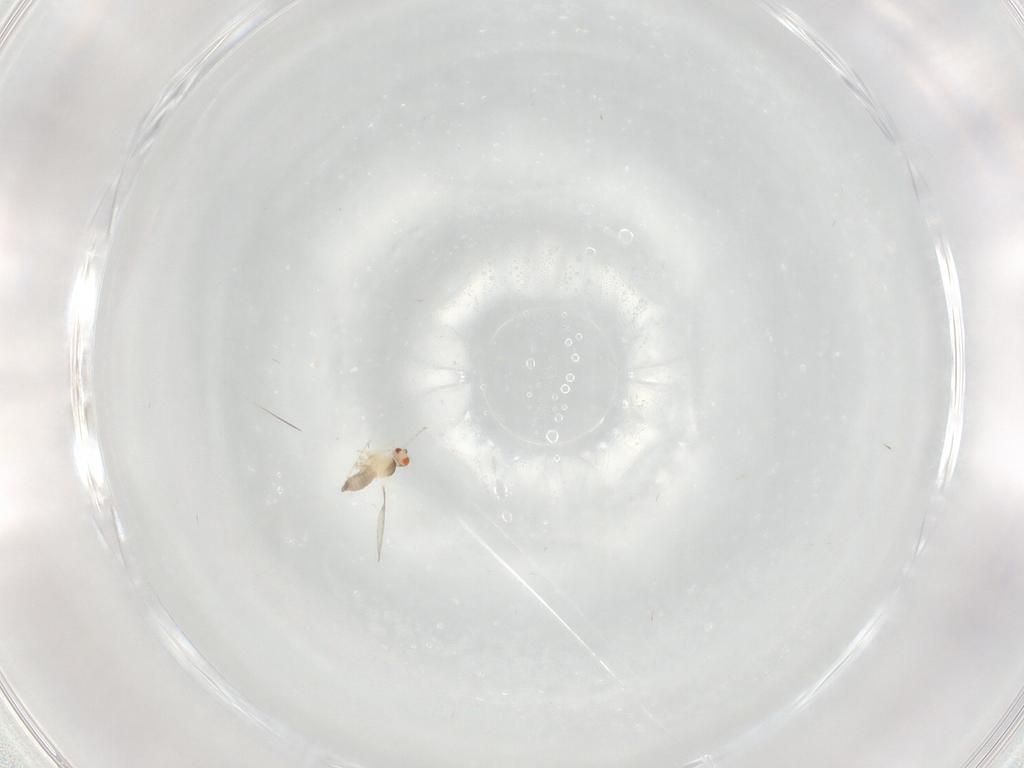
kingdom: Animalia
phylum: Arthropoda
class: Insecta
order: Diptera
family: Cecidomyiidae
